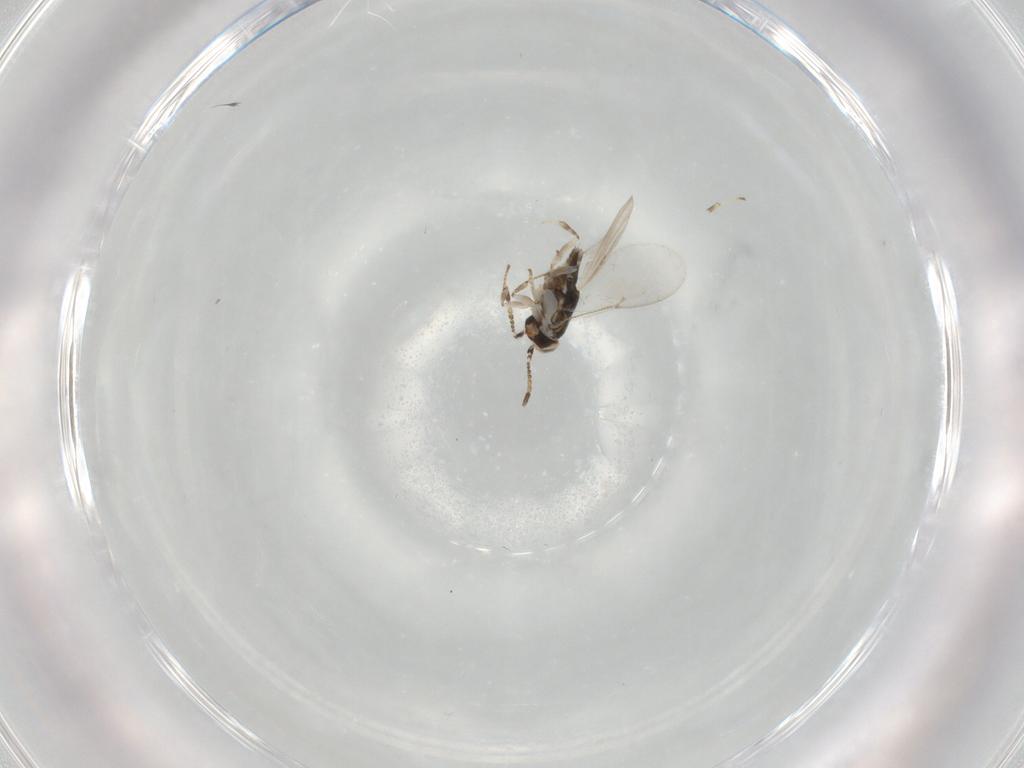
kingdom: Animalia
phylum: Arthropoda
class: Insecta
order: Hymenoptera
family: Encyrtidae
